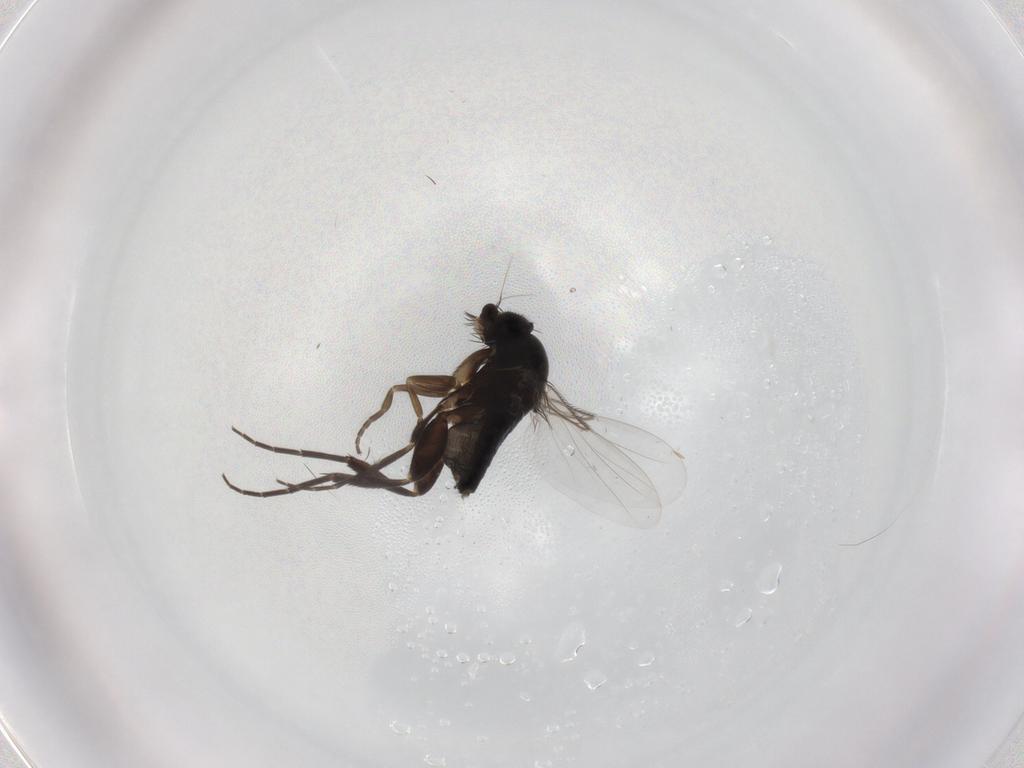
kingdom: Animalia
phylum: Arthropoda
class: Insecta
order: Diptera
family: Phoridae
